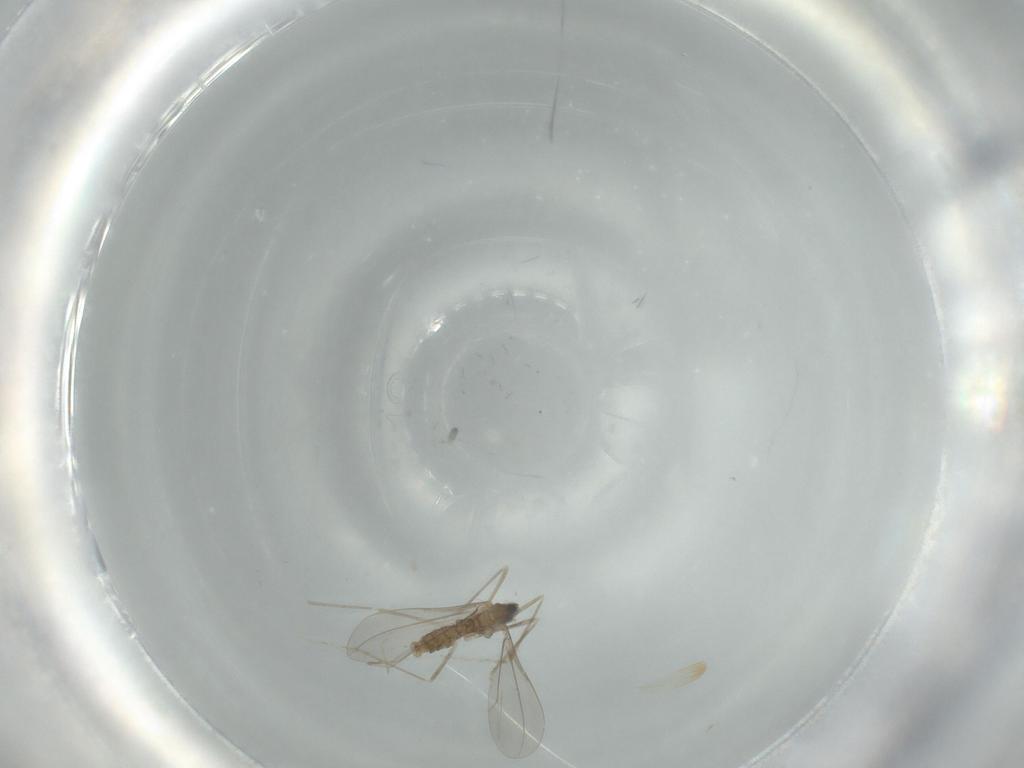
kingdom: Animalia
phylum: Arthropoda
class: Insecta
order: Diptera
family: Cecidomyiidae
